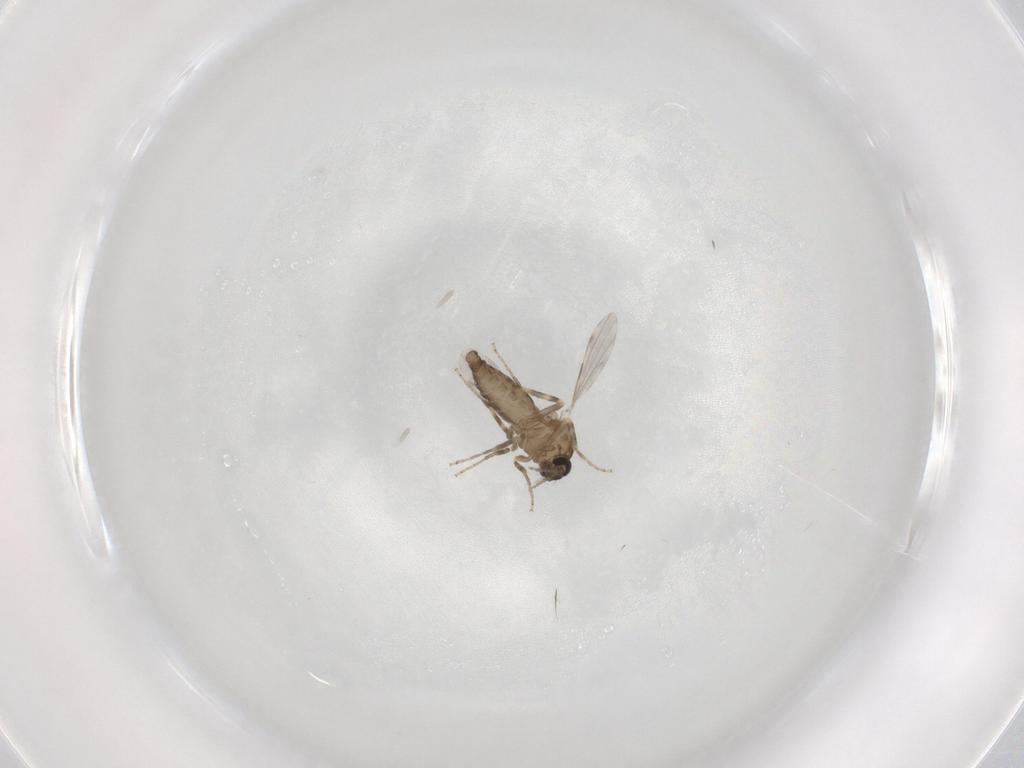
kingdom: Animalia
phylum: Arthropoda
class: Insecta
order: Diptera
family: Ceratopogonidae
